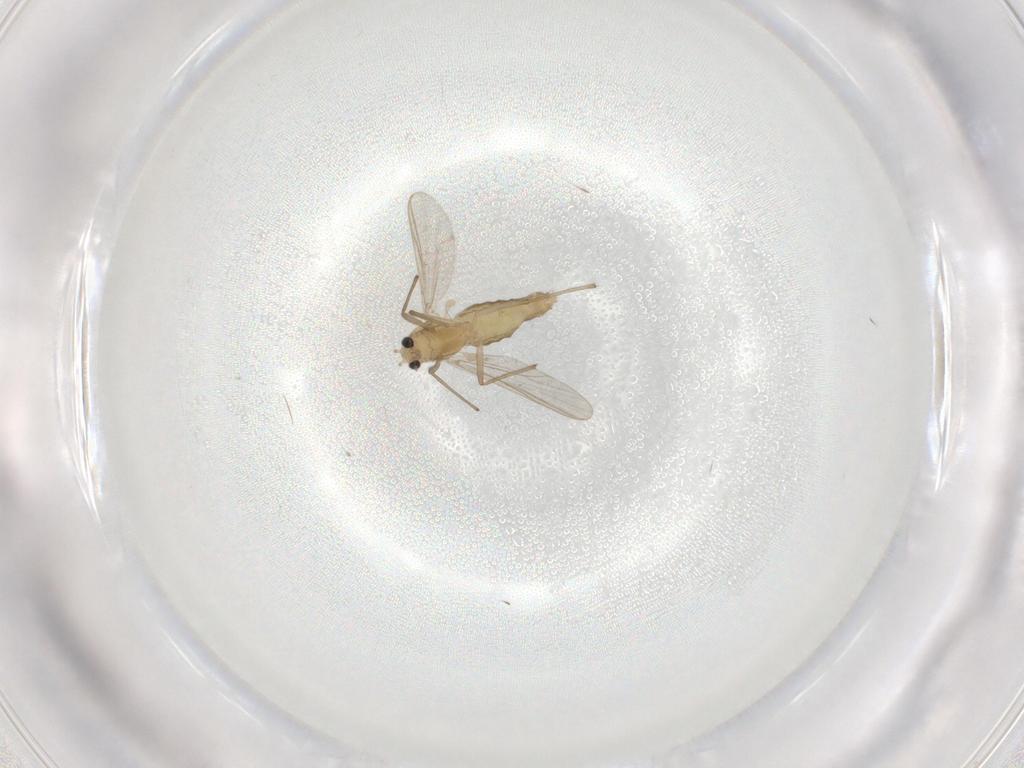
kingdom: Animalia
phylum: Arthropoda
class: Insecta
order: Diptera
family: Chironomidae
